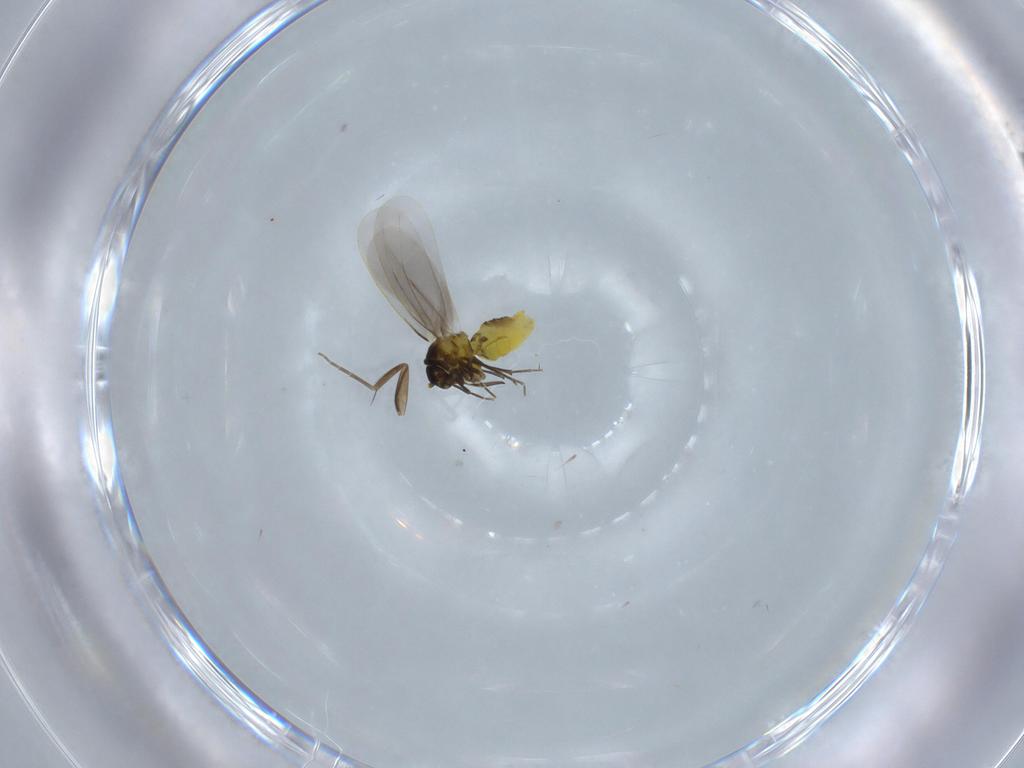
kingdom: Animalia
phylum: Arthropoda
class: Insecta
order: Hemiptera
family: Aleyrodidae
